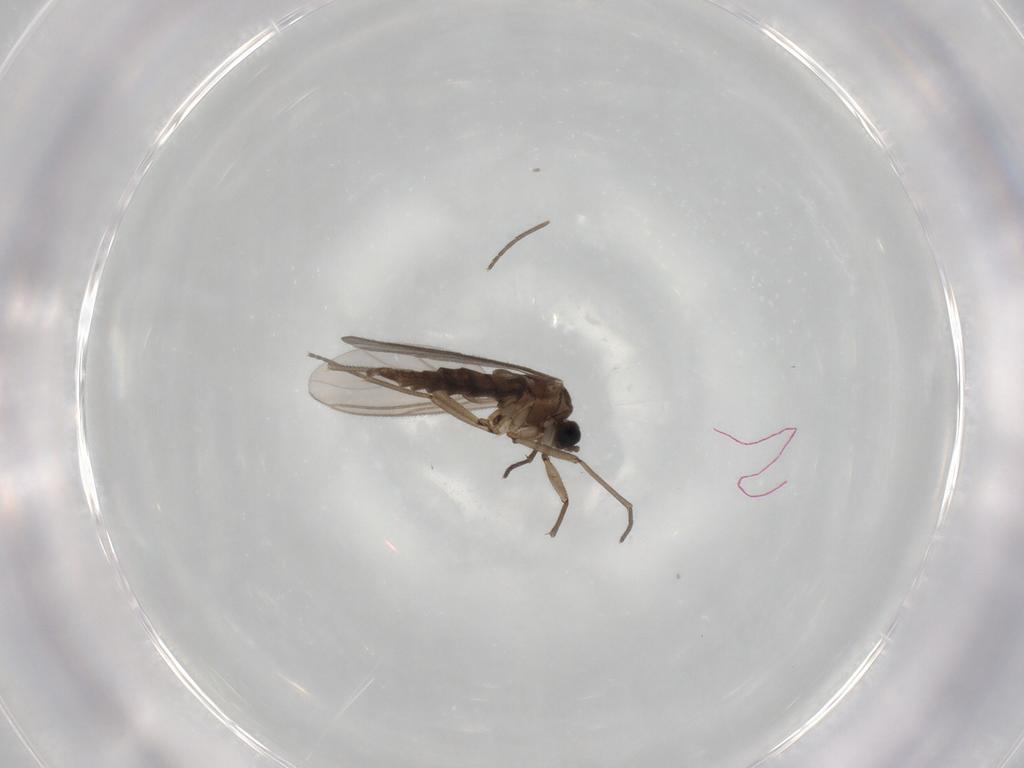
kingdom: Animalia
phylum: Arthropoda
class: Insecta
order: Diptera
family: Sciaridae
